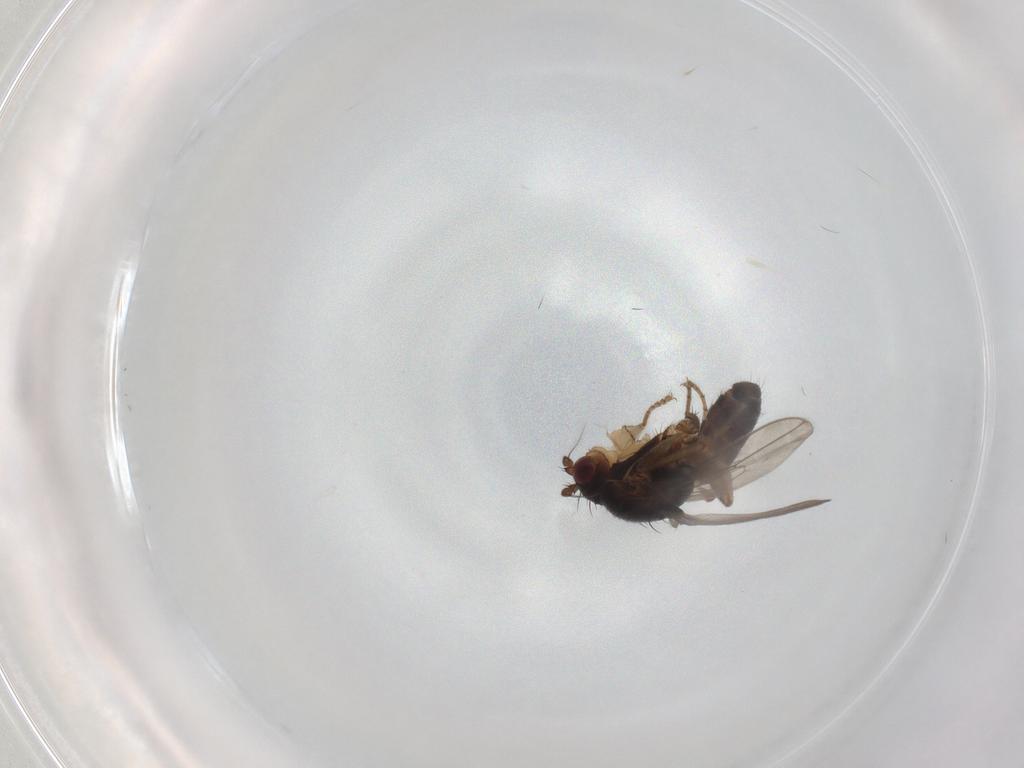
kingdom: Animalia
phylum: Arthropoda
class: Insecta
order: Diptera
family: Sphaeroceridae
